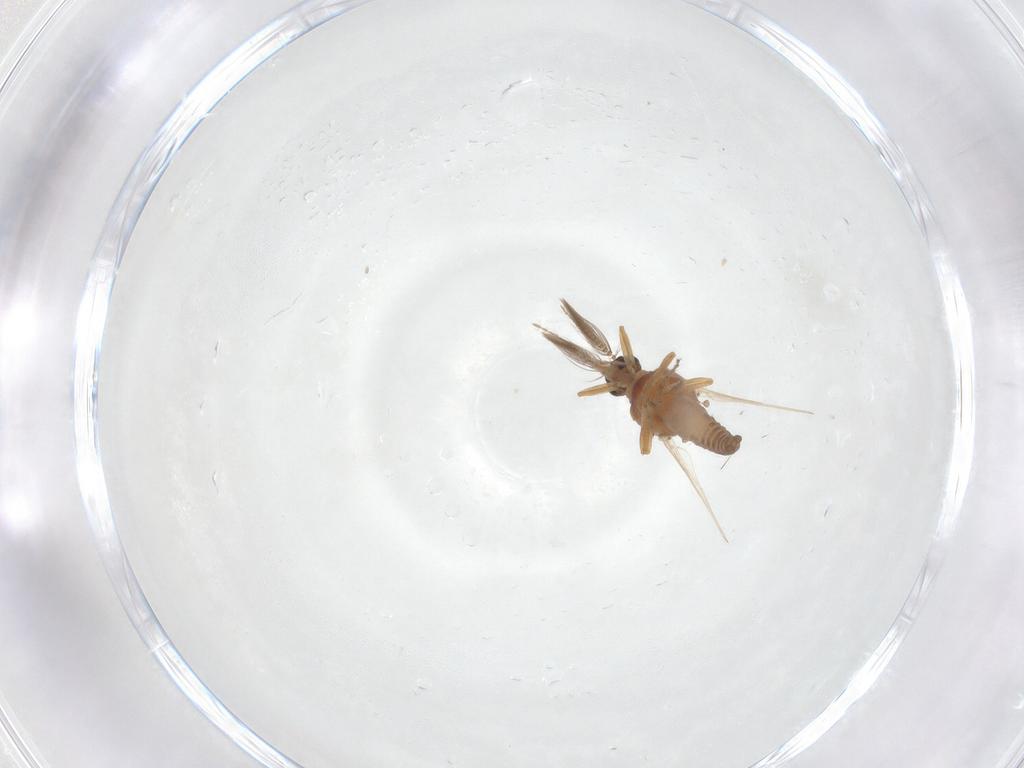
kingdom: Animalia
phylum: Arthropoda
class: Insecta
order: Diptera
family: Ceratopogonidae
